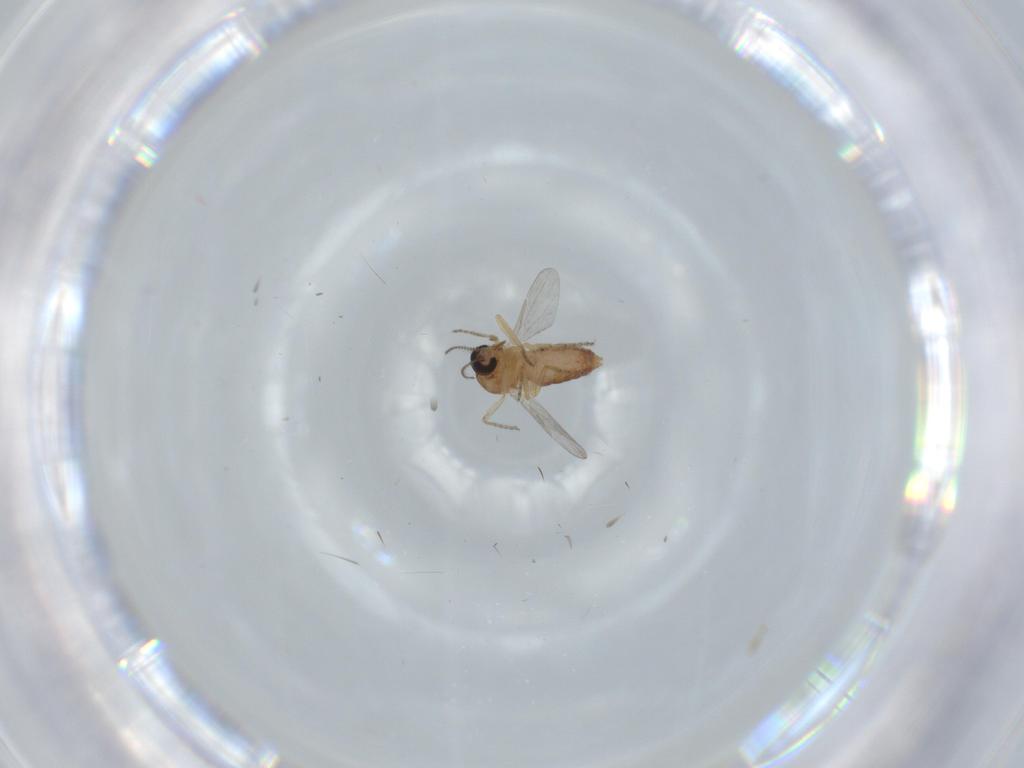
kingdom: Animalia
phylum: Arthropoda
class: Insecta
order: Diptera
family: Ceratopogonidae
